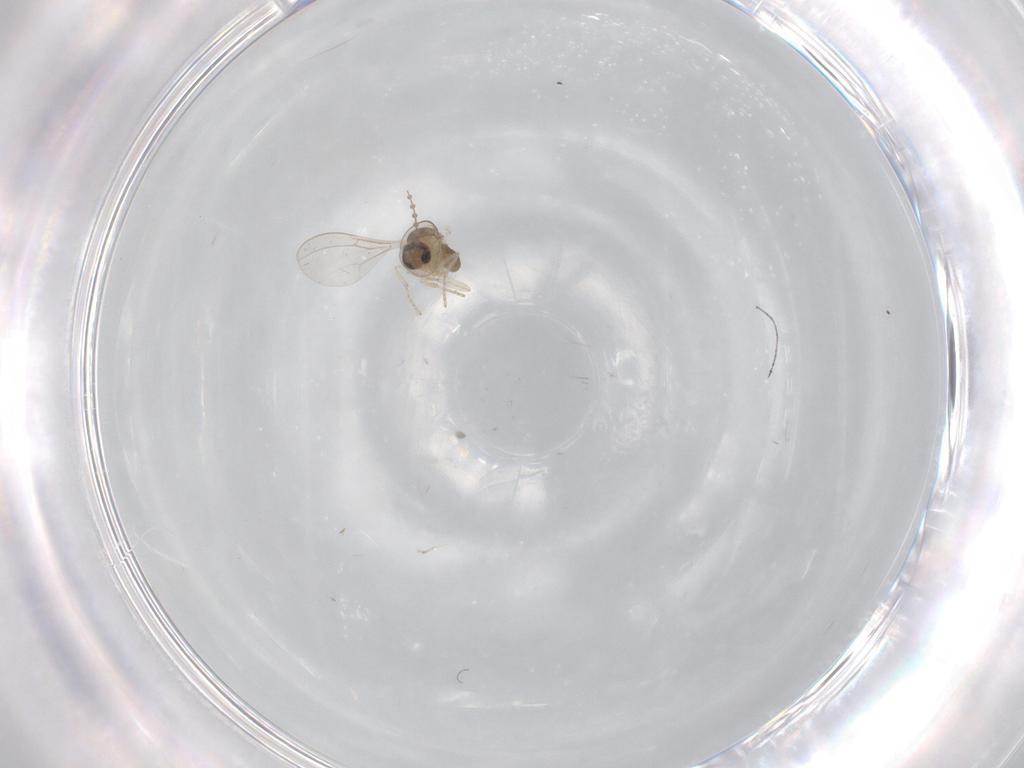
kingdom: Animalia
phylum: Arthropoda
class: Insecta
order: Diptera
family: Cecidomyiidae
